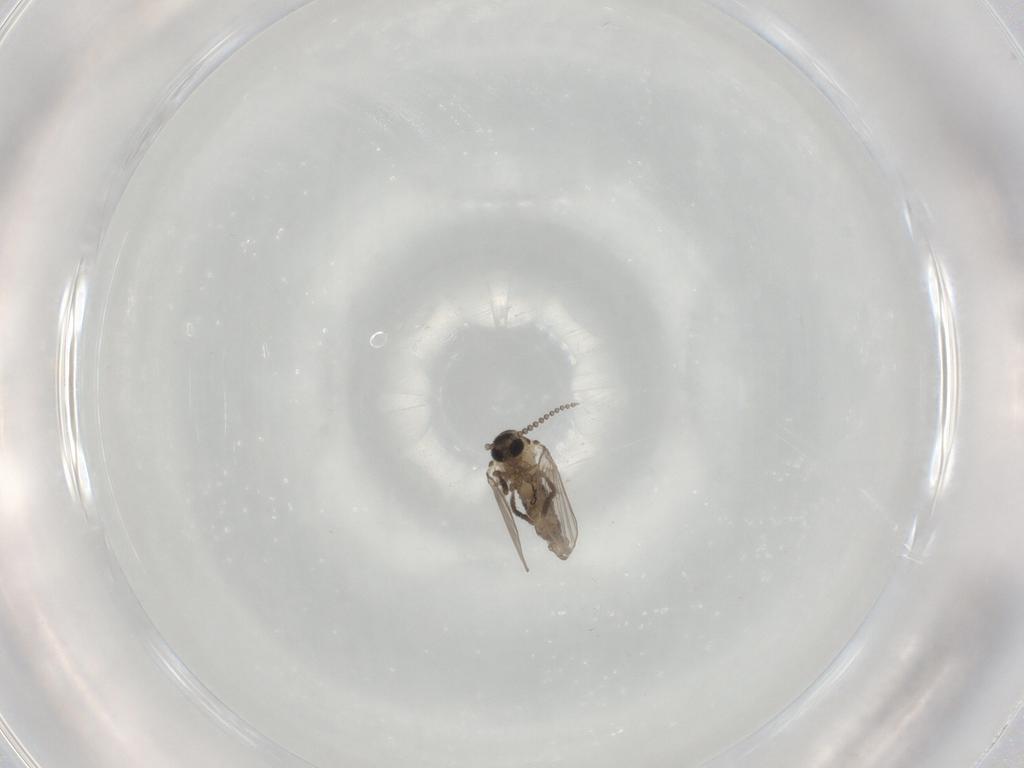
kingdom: Animalia
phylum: Arthropoda
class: Insecta
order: Diptera
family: Psychodidae
